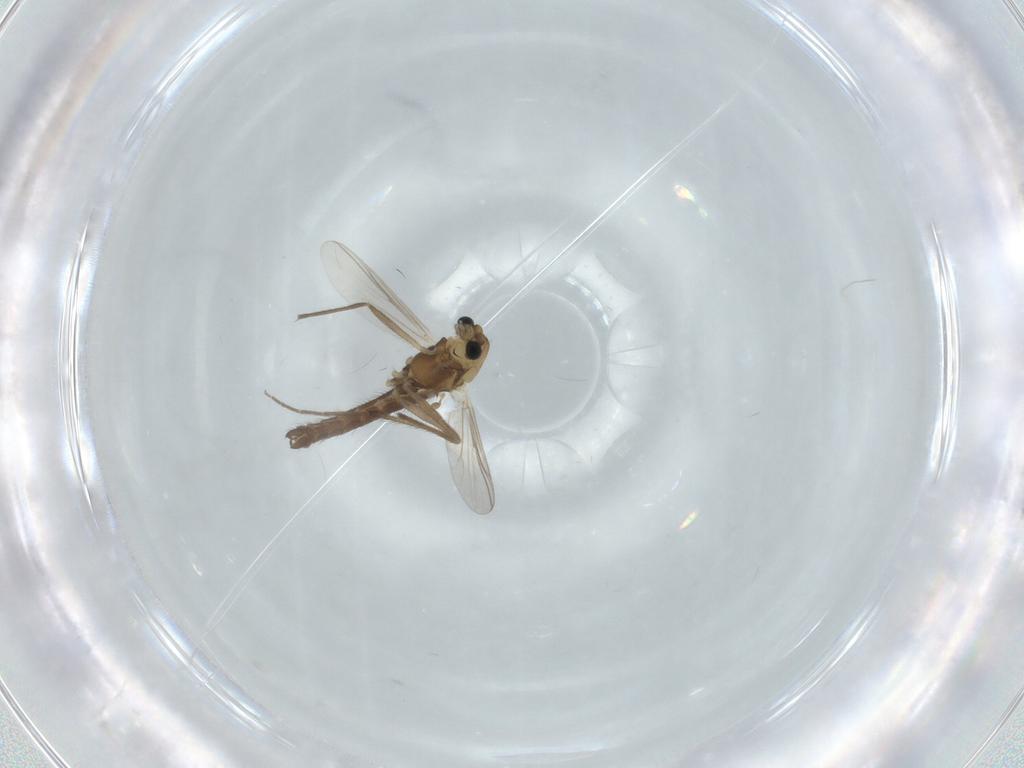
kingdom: Animalia
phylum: Arthropoda
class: Insecta
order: Diptera
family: Chironomidae
